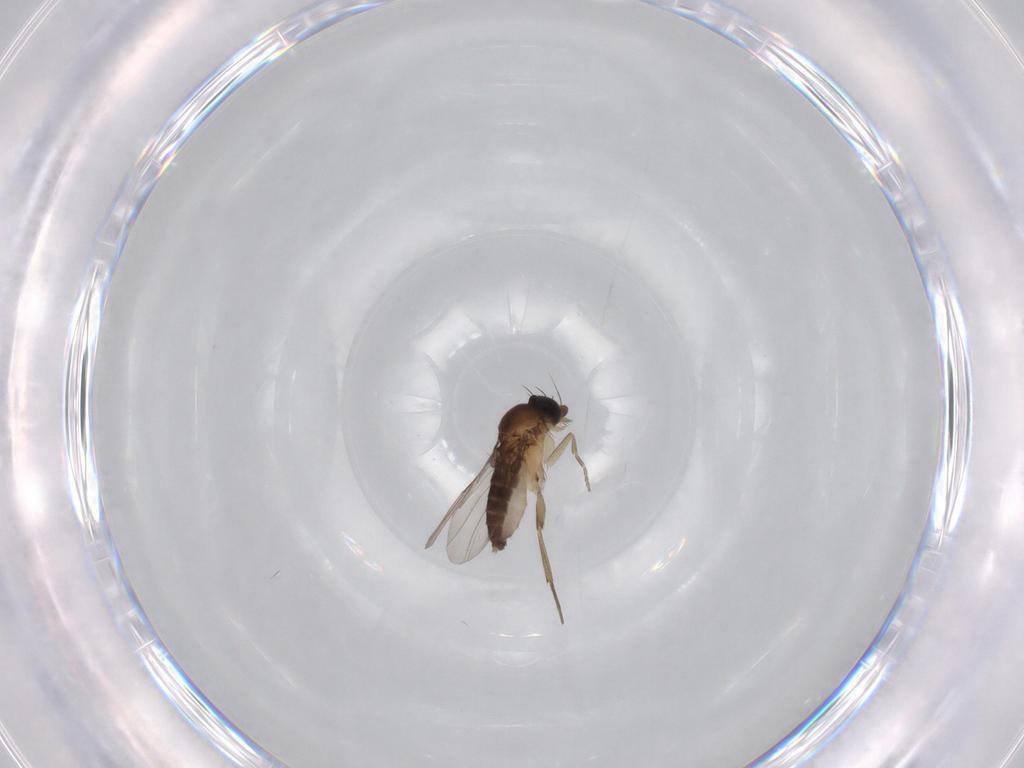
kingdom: Animalia
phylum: Arthropoda
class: Insecta
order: Diptera
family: Phoridae
